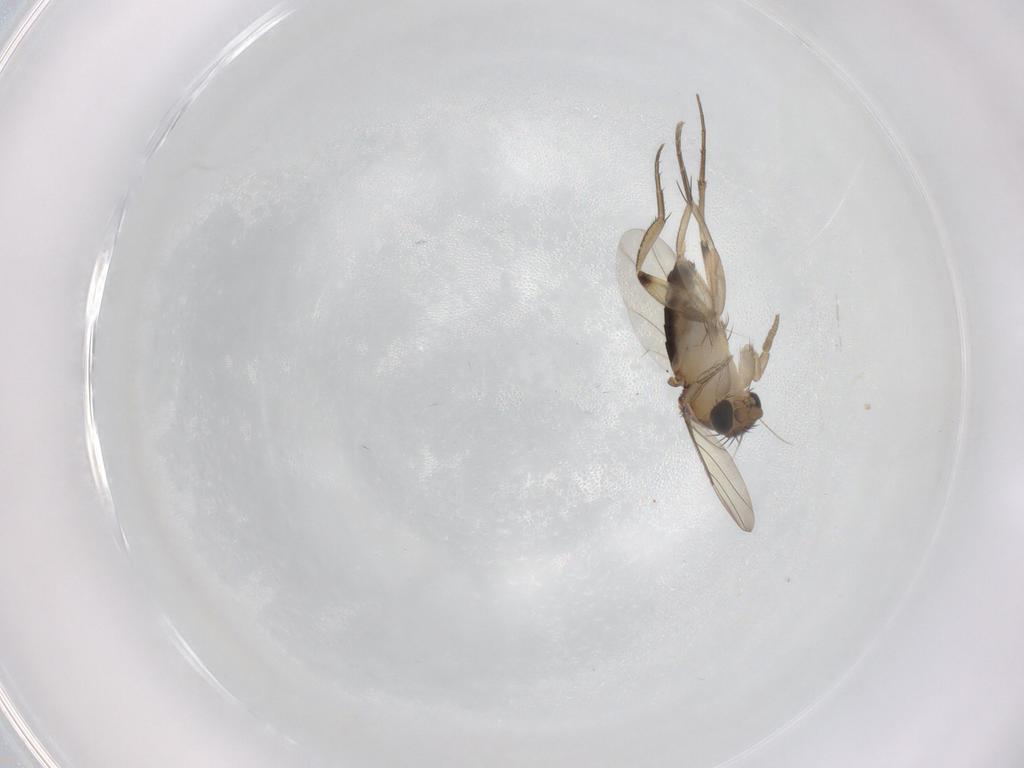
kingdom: Animalia
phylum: Arthropoda
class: Insecta
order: Diptera
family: Phoridae
